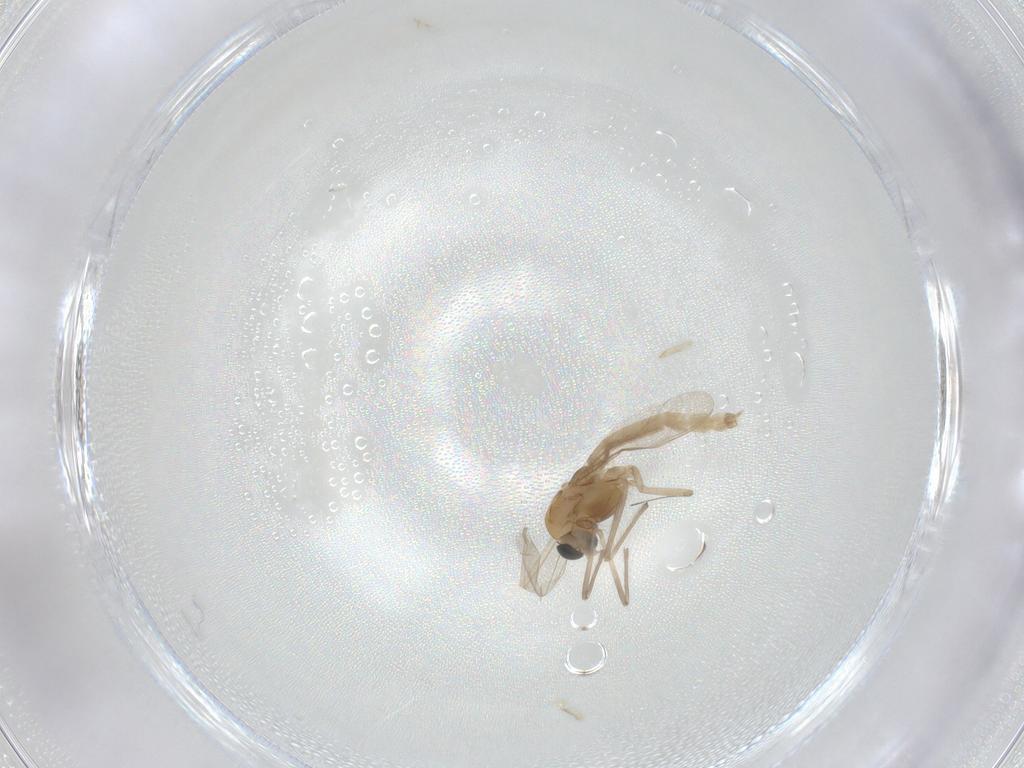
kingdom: Animalia
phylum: Arthropoda
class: Insecta
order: Diptera
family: Chironomidae
